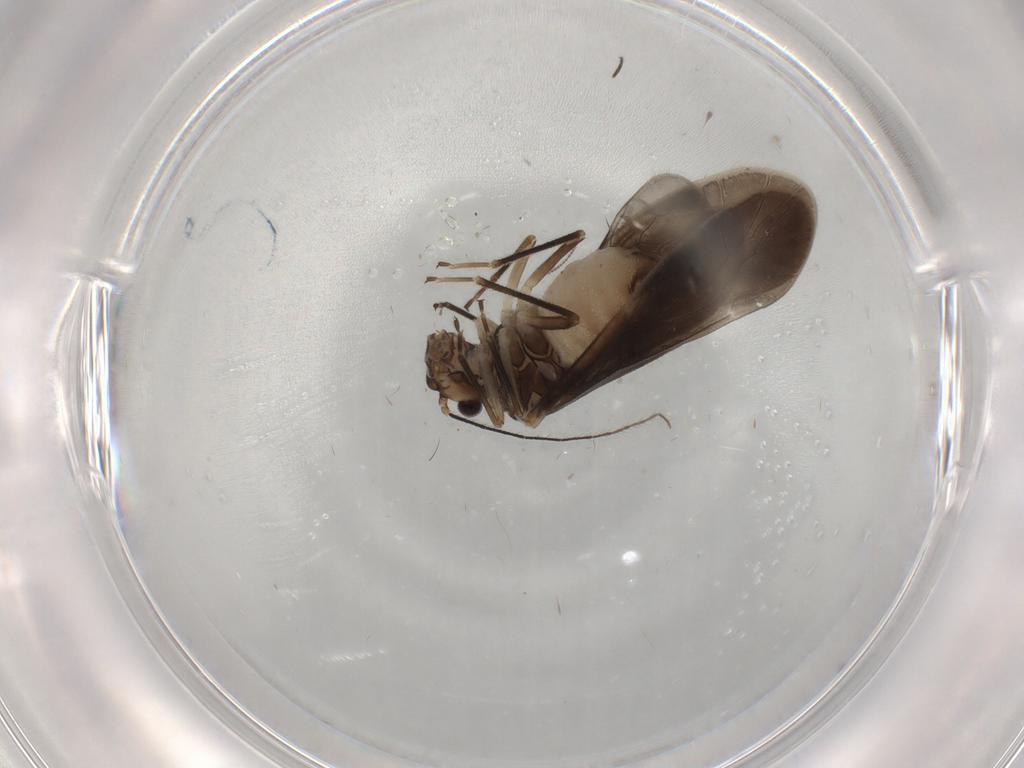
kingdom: Animalia
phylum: Arthropoda
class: Insecta
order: Psocodea
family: Caeciliusidae
